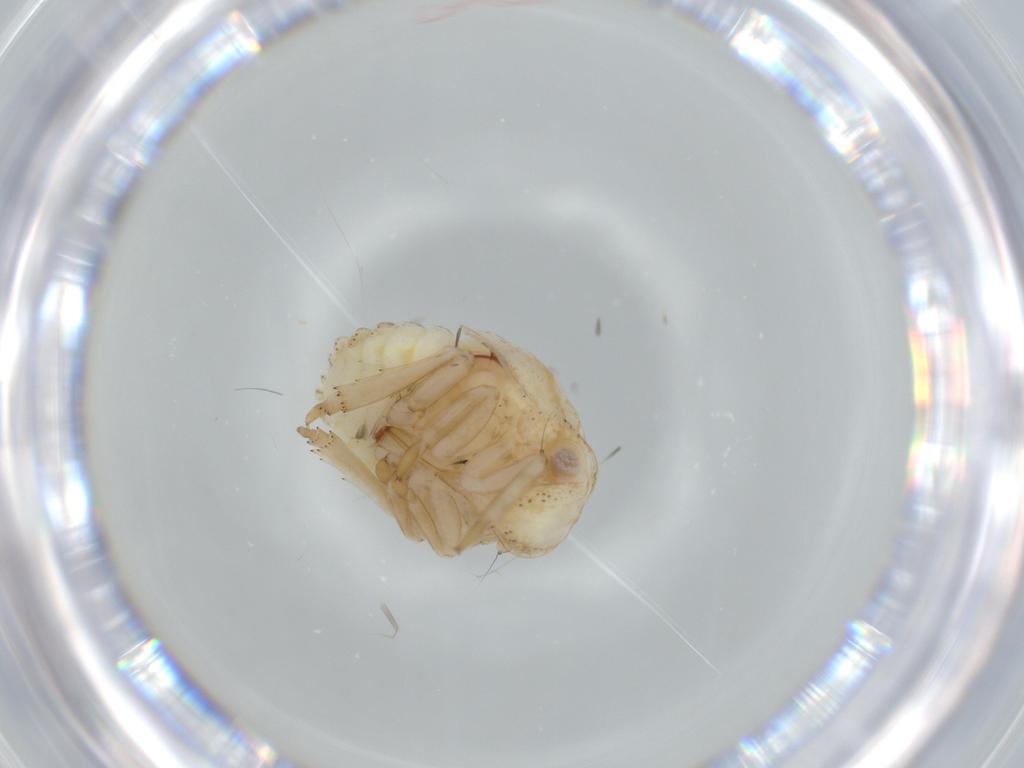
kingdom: Animalia
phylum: Arthropoda
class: Insecta
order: Hemiptera
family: Acanaloniidae
